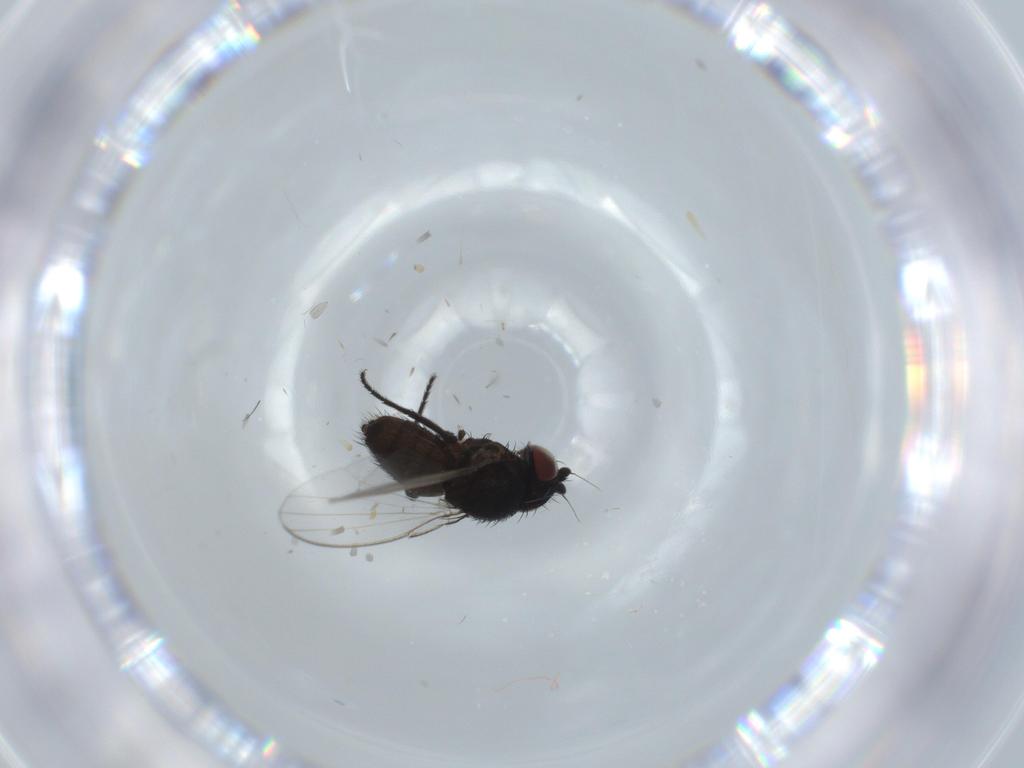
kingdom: Animalia
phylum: Arthropoda
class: Insecta
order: Diptera
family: Milichiidae
